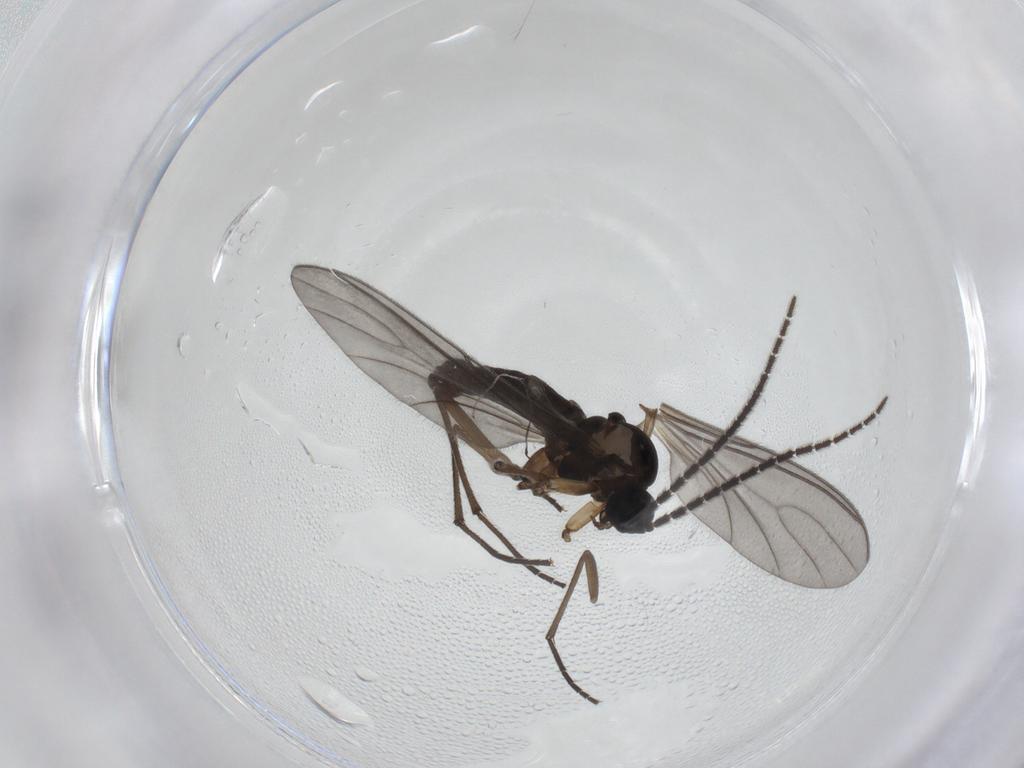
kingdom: Animalia
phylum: Arthropoda
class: Insecta
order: Diptera
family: Sciaridae
